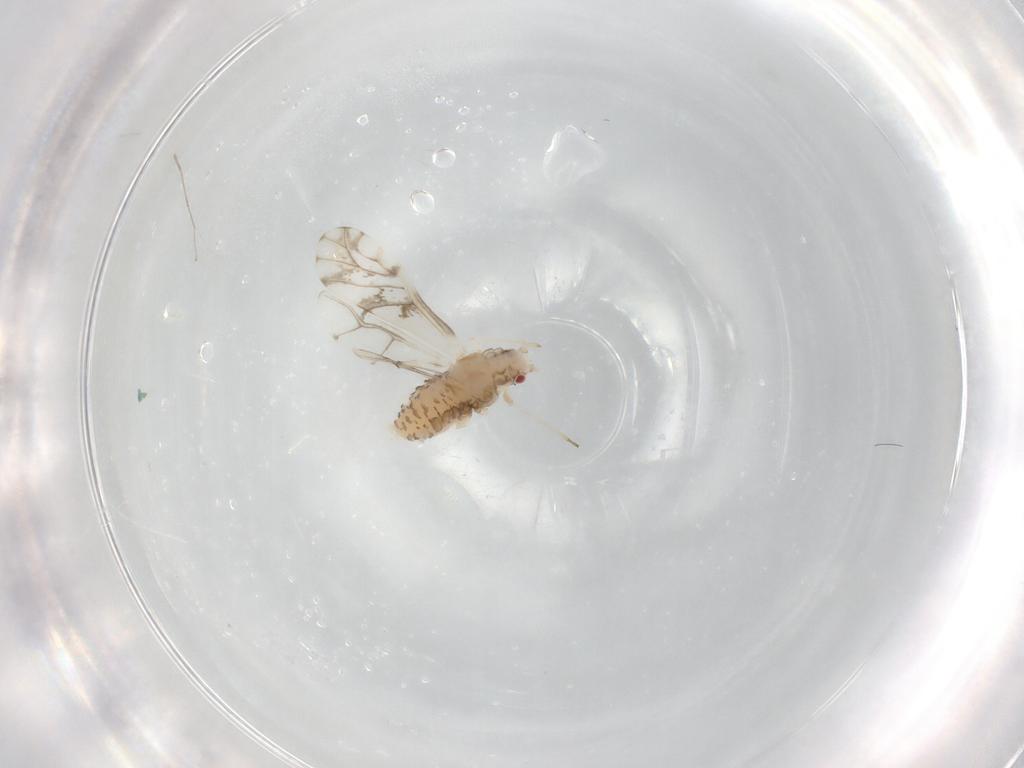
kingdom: Animalia
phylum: Arthropoda
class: Insecta
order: Hemiptera
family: Aphididae
